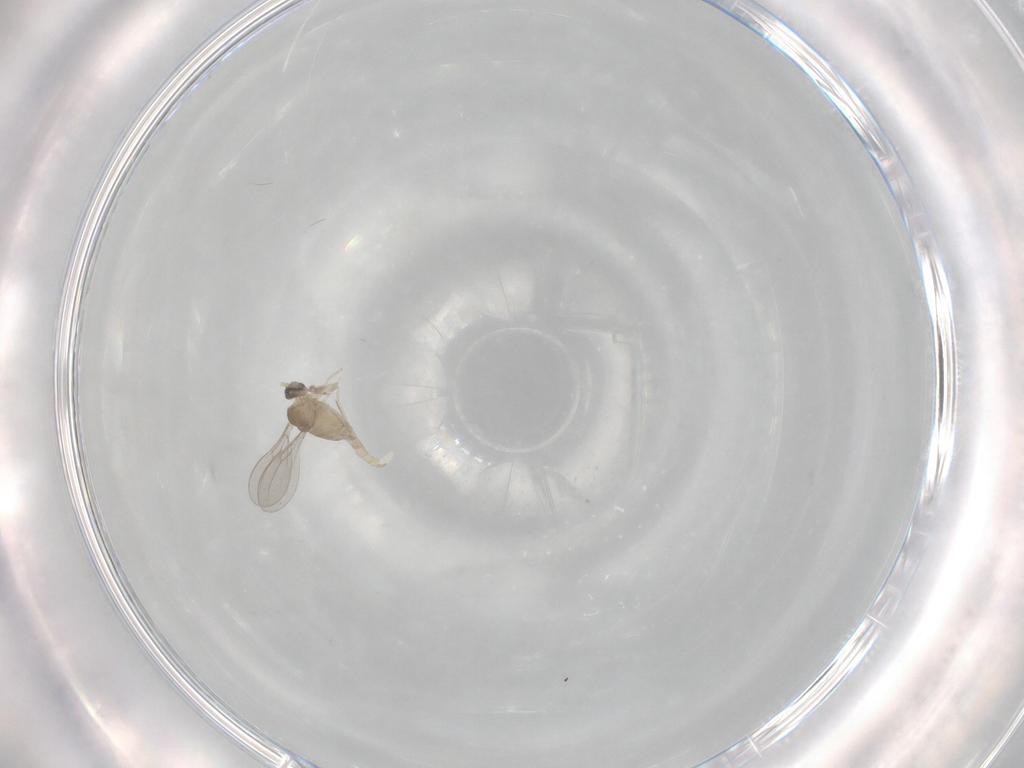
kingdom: Animalia
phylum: Arthropoda
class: Insecta
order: Diptera
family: Cecidomyiidae
